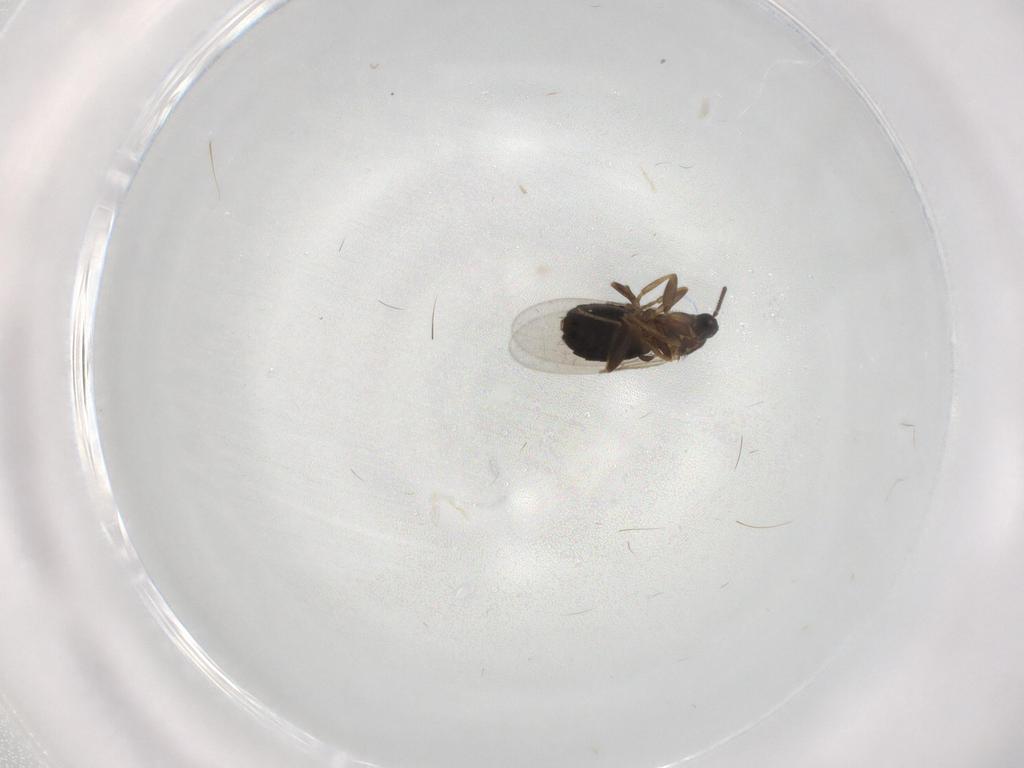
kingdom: Animalia
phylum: Arthropoda
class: Insecta
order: Diptera
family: Scatopsidae
